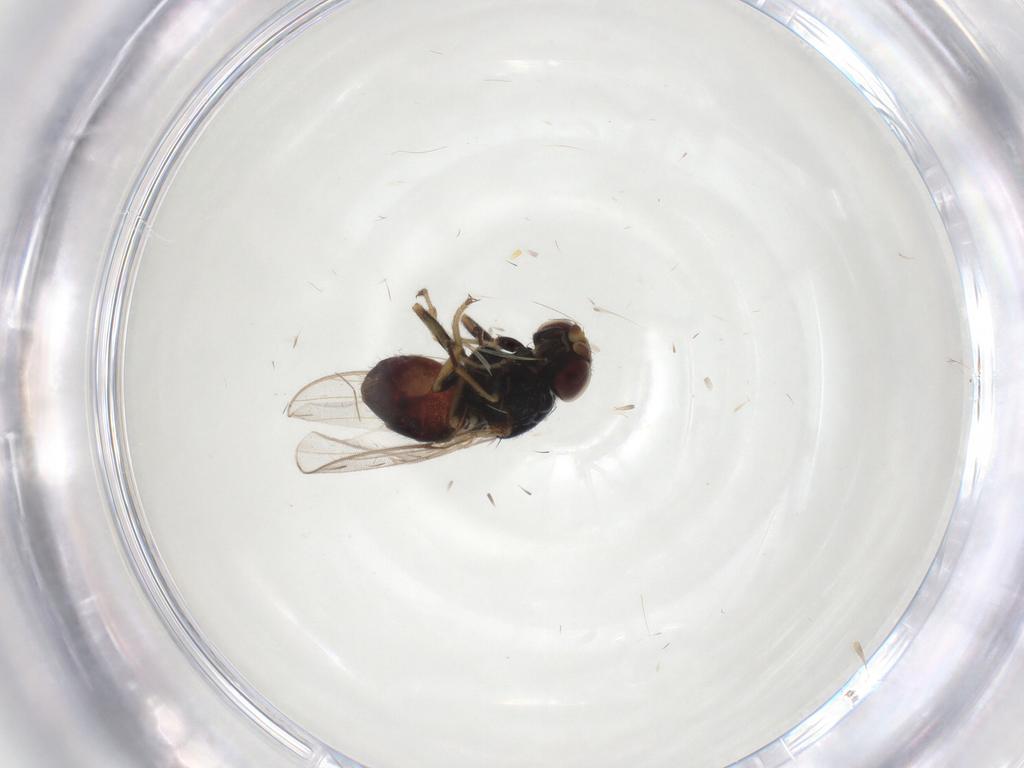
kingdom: Animalia
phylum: Arthropoda
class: Insecta
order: Diptera
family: Chloropidae
